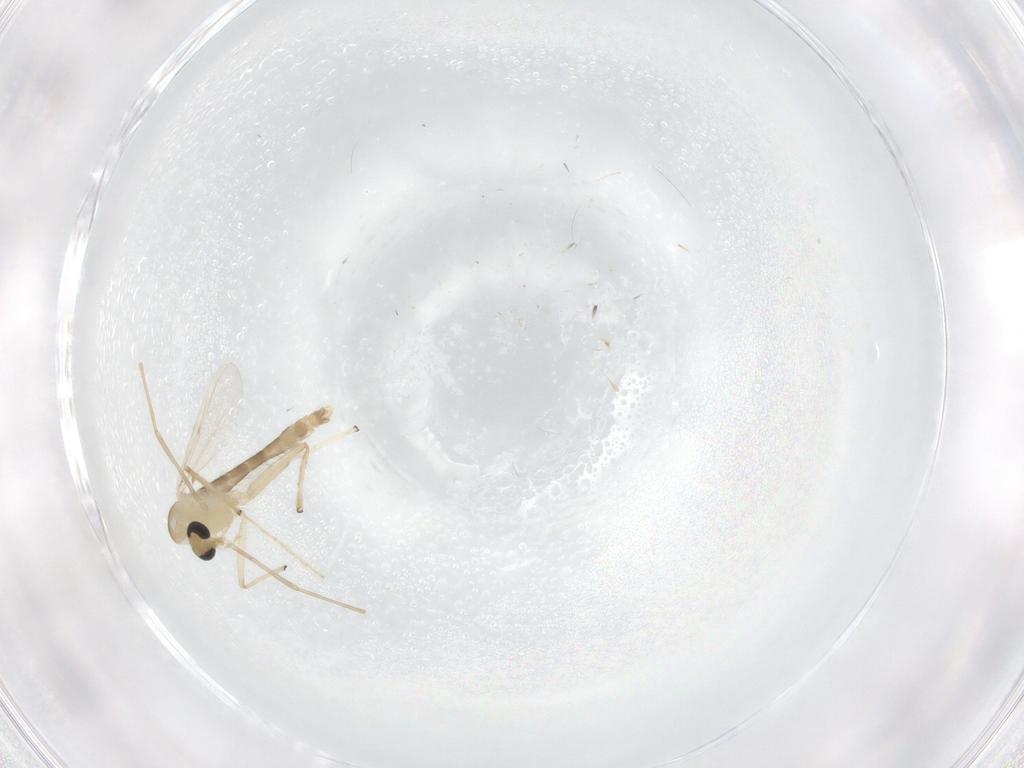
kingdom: Animalia
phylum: Arthropoda
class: Insecta
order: Diptera
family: Chironomidae
